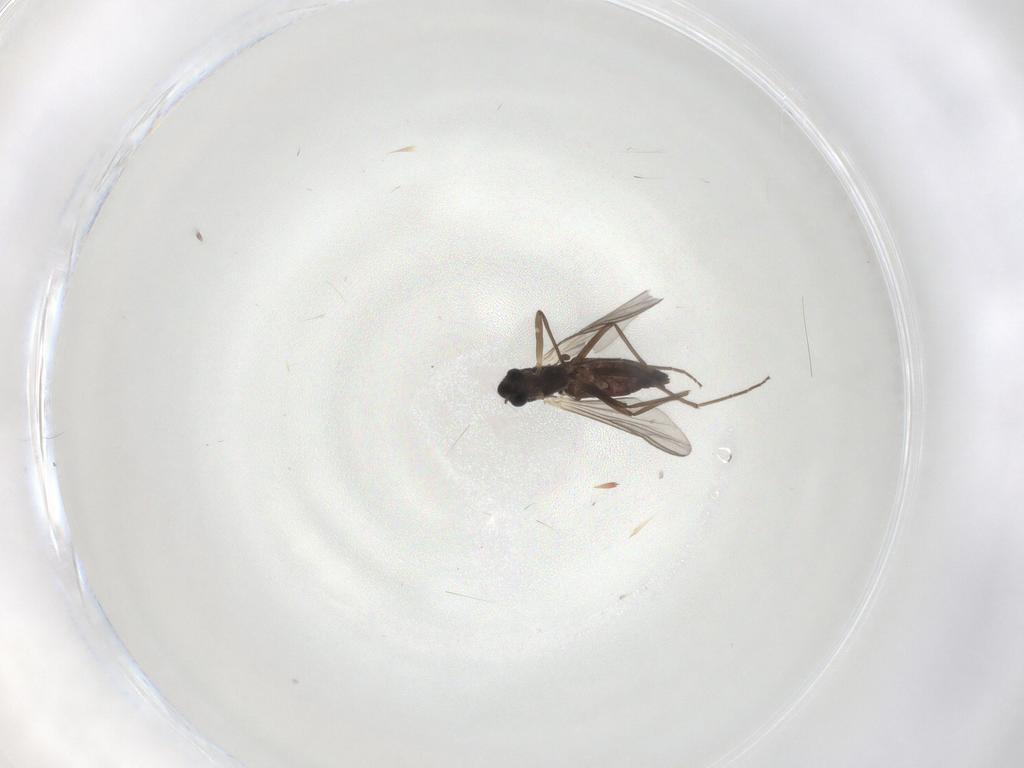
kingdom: Animalia
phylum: Arthropoda
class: Insecta
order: Diptera
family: Chironomidae
